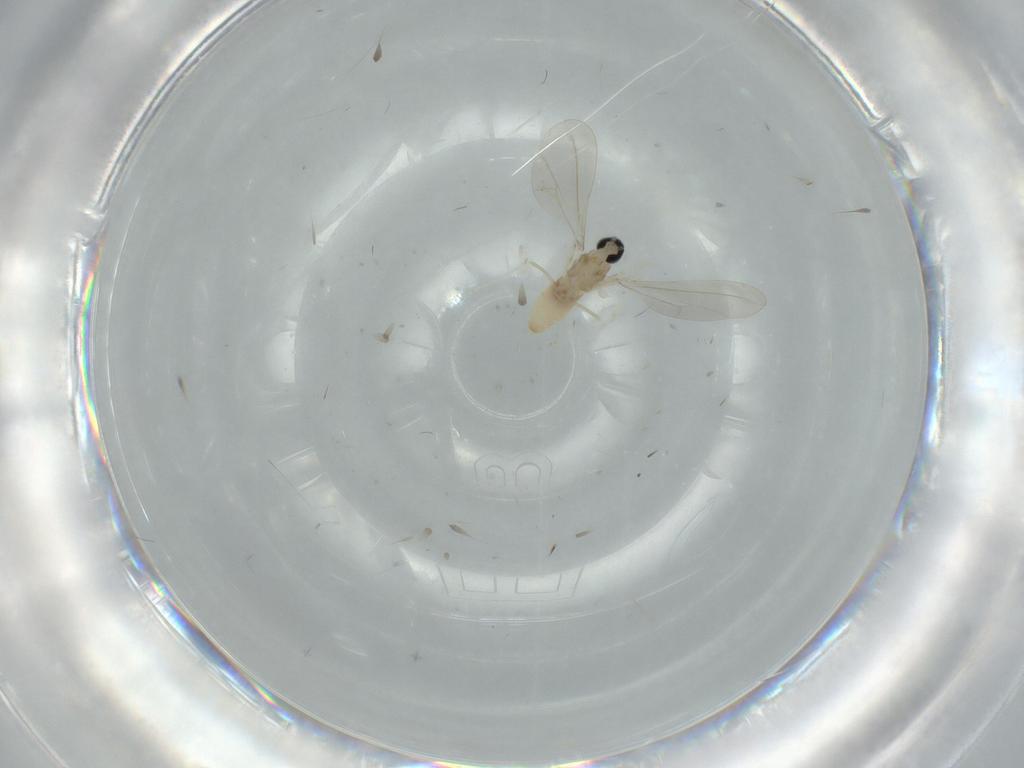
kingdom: Animalia
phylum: Arthropoda
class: Insecta
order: Diptera
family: Cecidomyiidae
